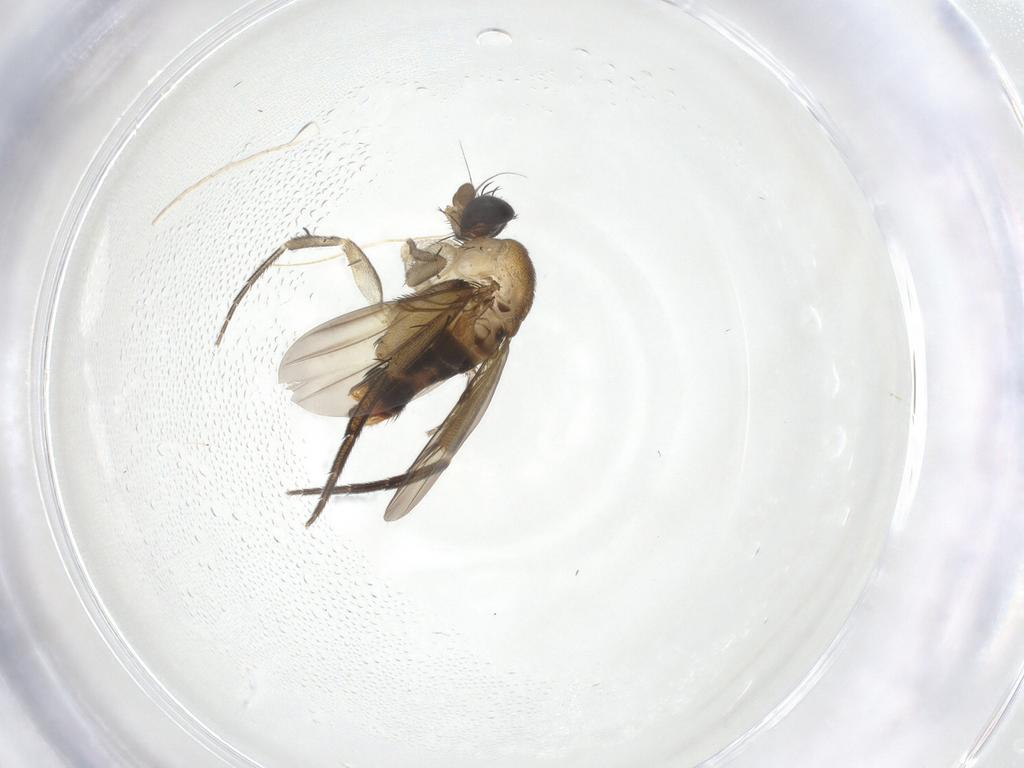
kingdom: Animalia
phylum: Arthropoda
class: Insecta
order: Diptera
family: Phoridae
